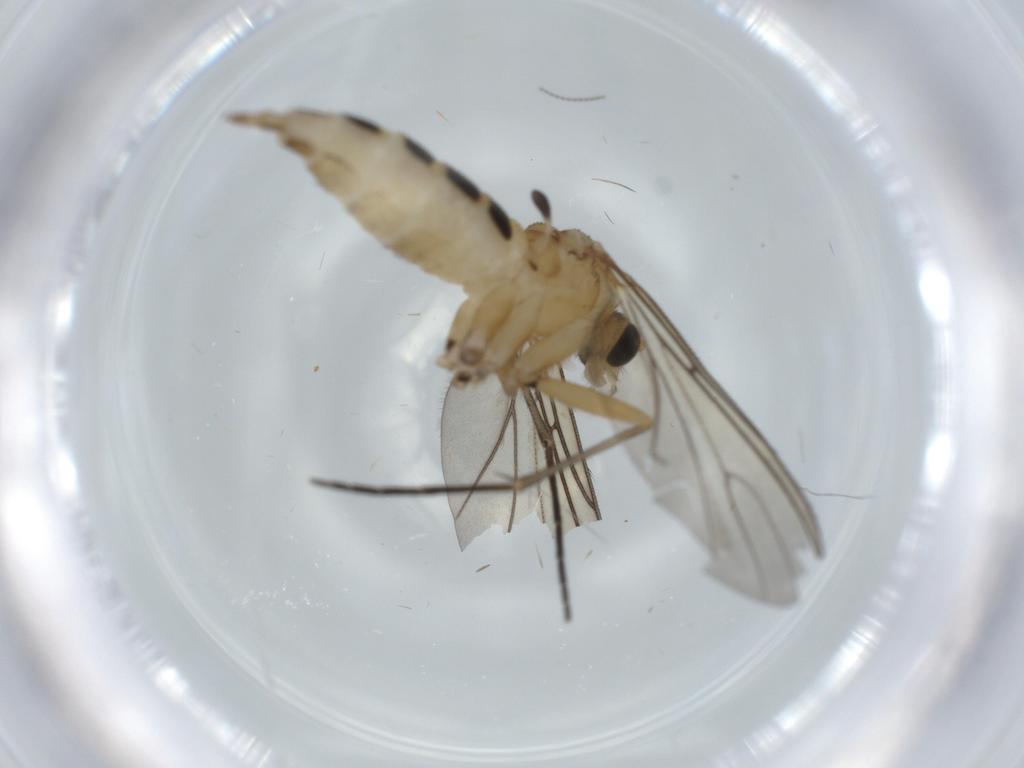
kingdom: Animalia
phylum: Arthropoda
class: Insecta
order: Diptera
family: Sciaridae
